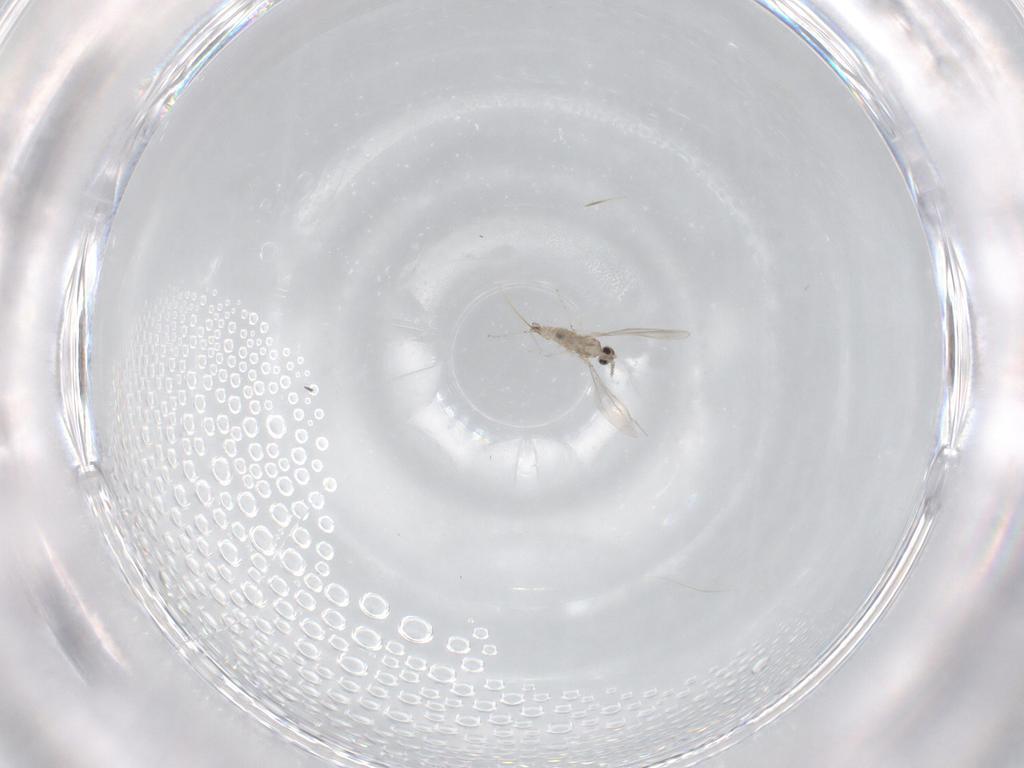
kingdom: Animalia
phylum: Arthropoda
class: Insecta
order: Diptera
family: Cecidomyiidae
